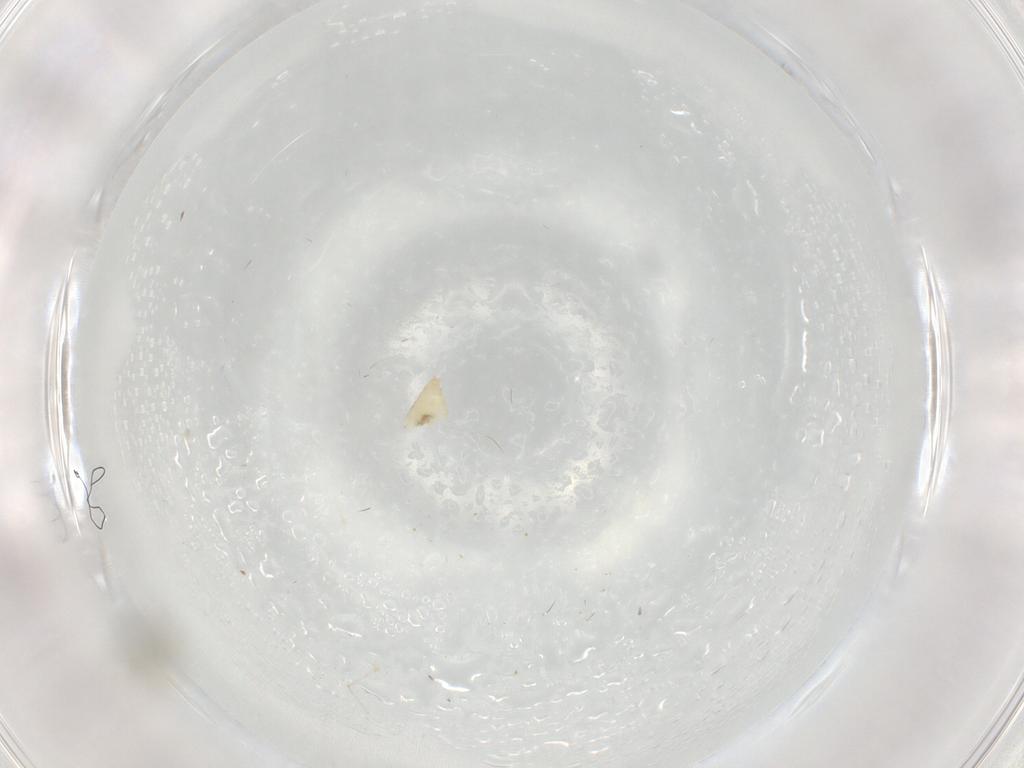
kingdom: Animalia
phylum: Arthropoda
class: Insecta
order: Diptera
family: Cecidomyiidae
